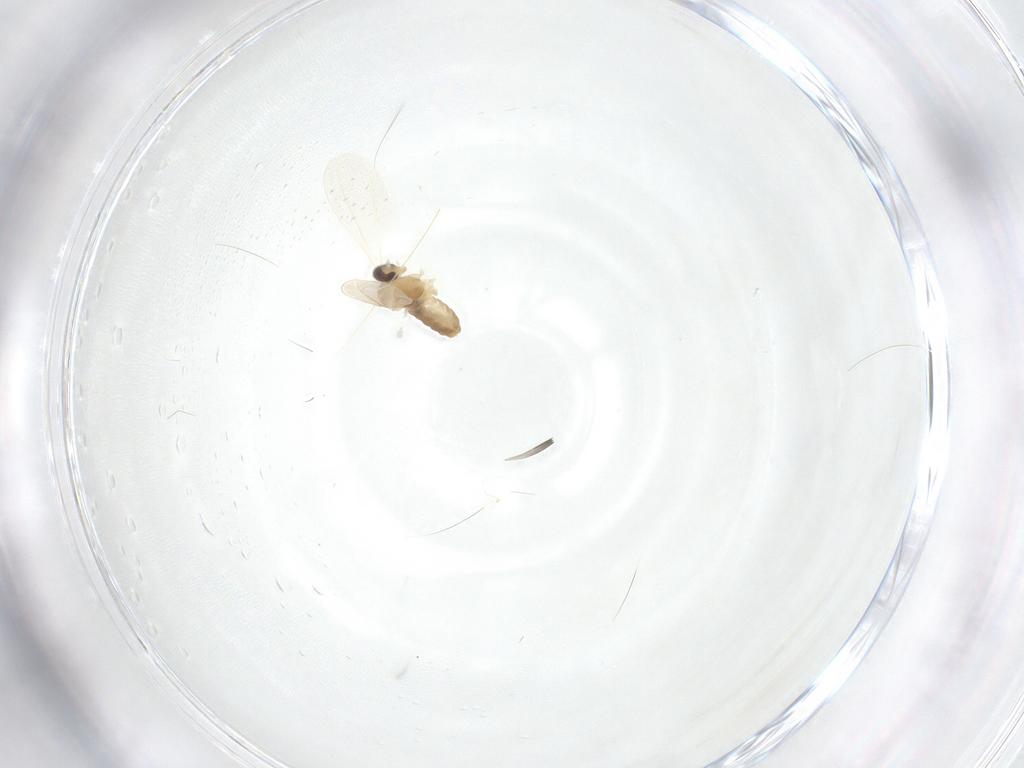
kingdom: Animalia
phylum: Arthropoda
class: Insecta
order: Diptera
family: Cecidomyiidae
